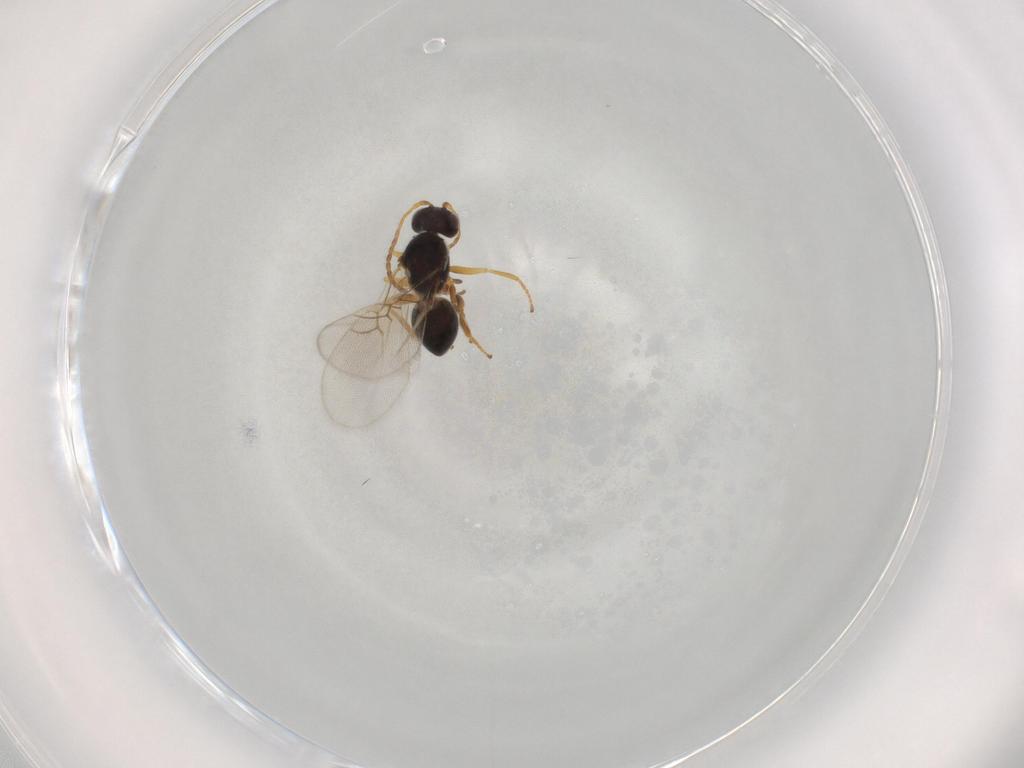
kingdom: Animalia
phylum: Arthropoda
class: Insecta
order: Hymenoptera
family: Figitidae
